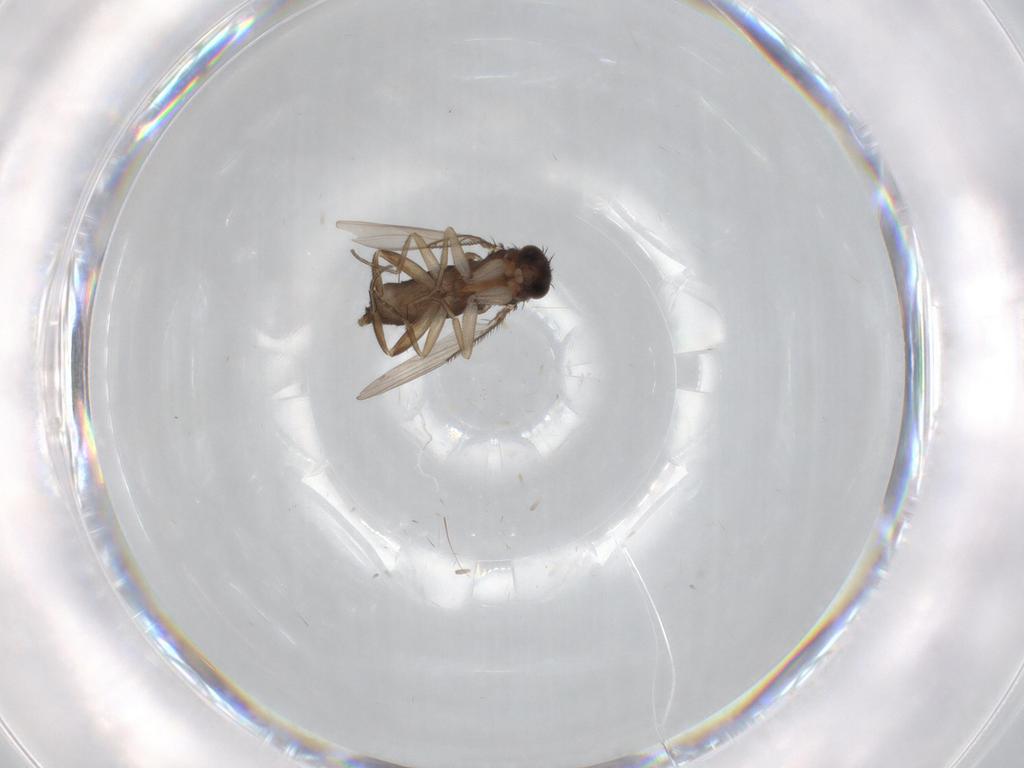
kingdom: Animalia
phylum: Arthropoda
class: Insecta
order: Diptera
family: Phoridae
